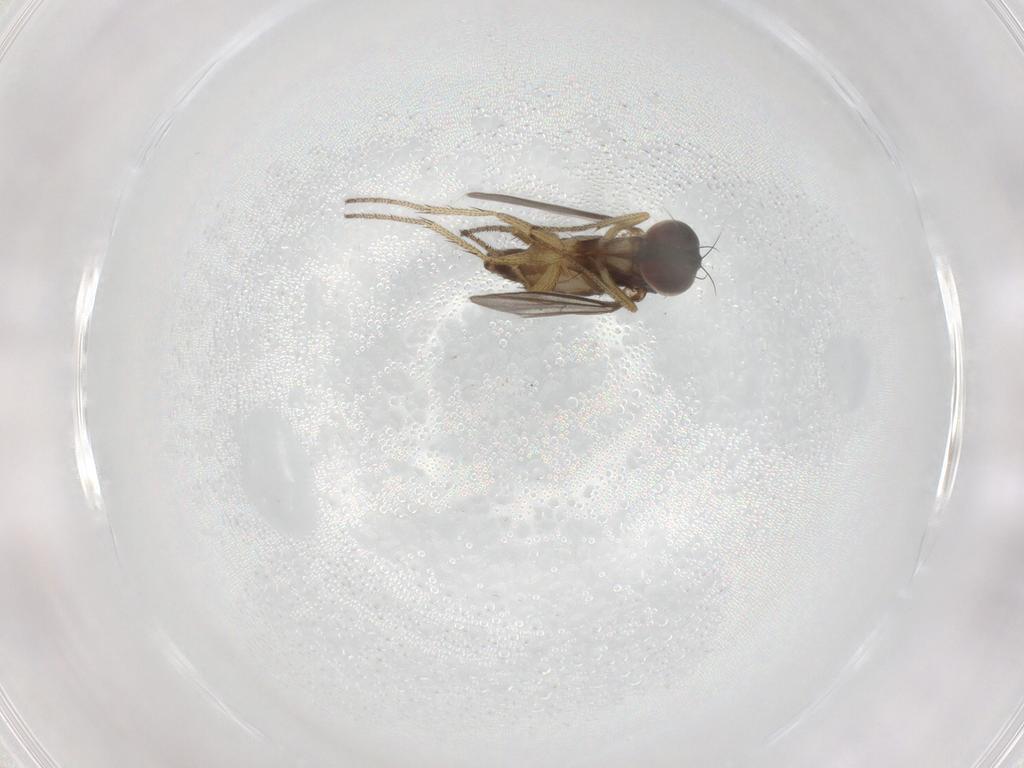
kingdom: Animalia
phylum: Arthropoda
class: Insecta
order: Diptera
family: Dolichopodidae
